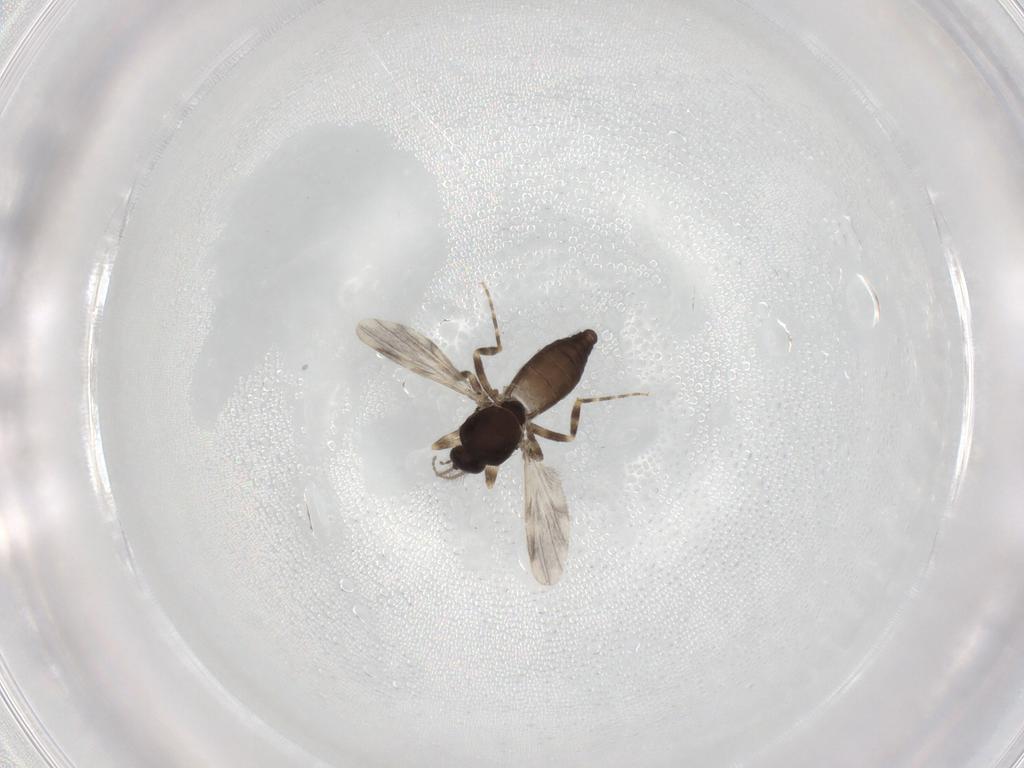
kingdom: Animalia
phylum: Arthropoda
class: Insecta
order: Diptera
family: Ceratopogonidae
